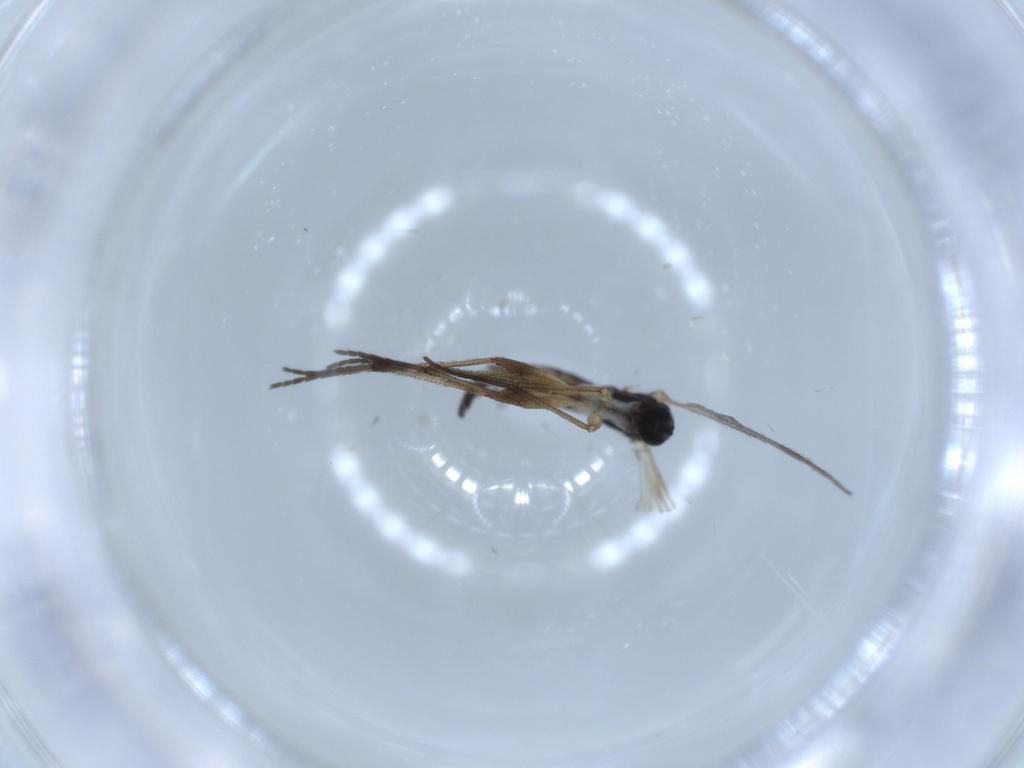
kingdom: Animalia
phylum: Arthropoda
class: Insecta
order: Diptera
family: Sciaridae
